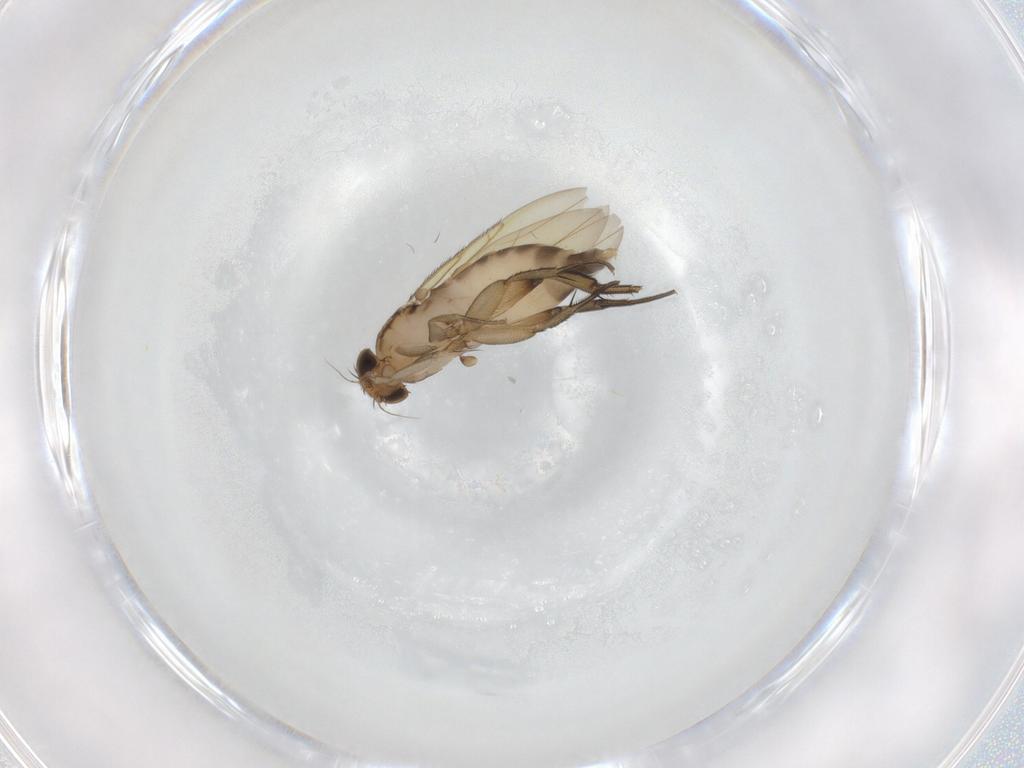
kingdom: Animalia
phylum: Arthropoda
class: Insecta
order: Diptera
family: Phoridae
